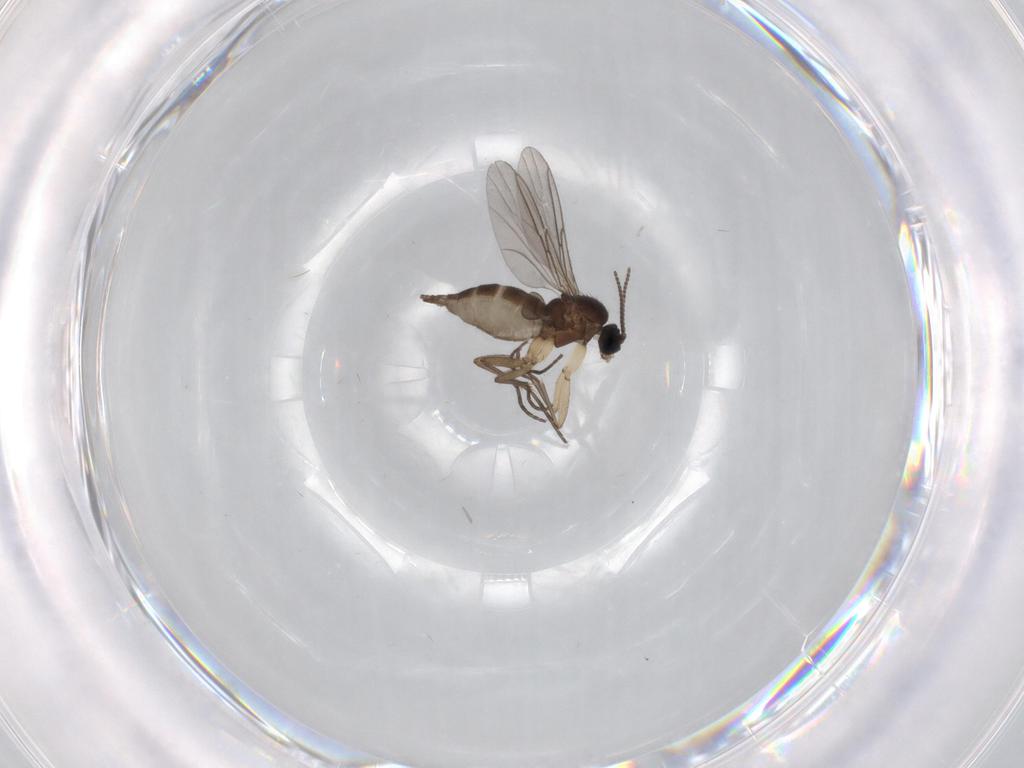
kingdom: Animalia
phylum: Arthropoda
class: Insecta
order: Diptera
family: Sciaridae
